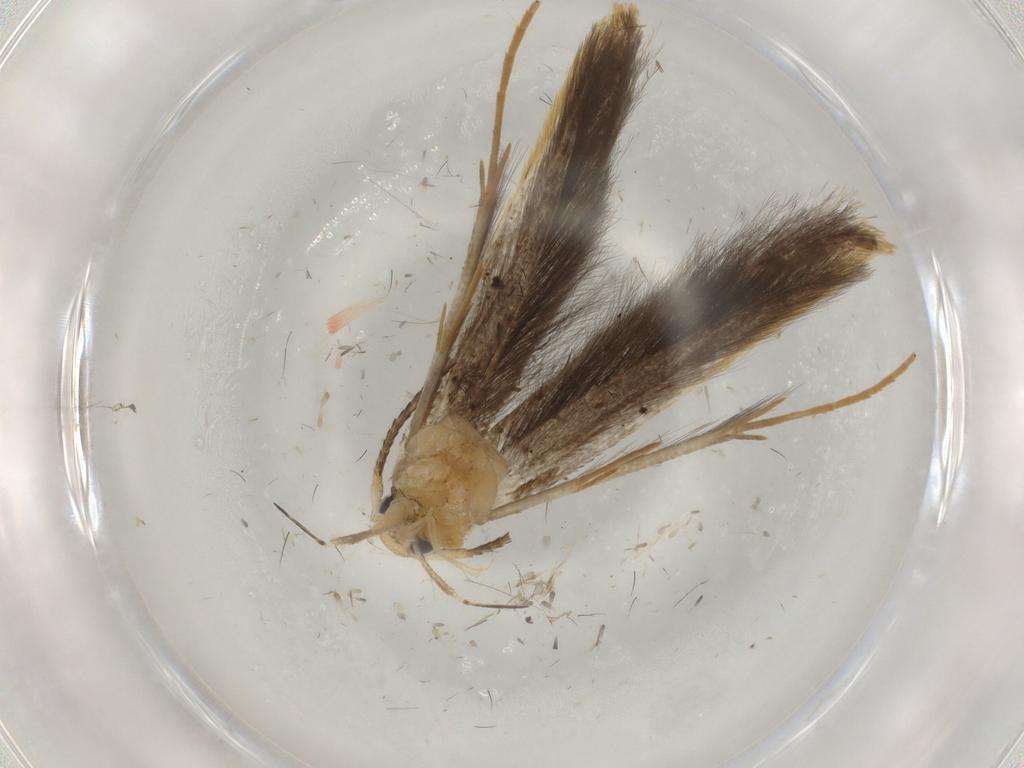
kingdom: Animalia
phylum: Arthropoda
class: Insecta
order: Lepidoptera
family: Pterolonchidae
